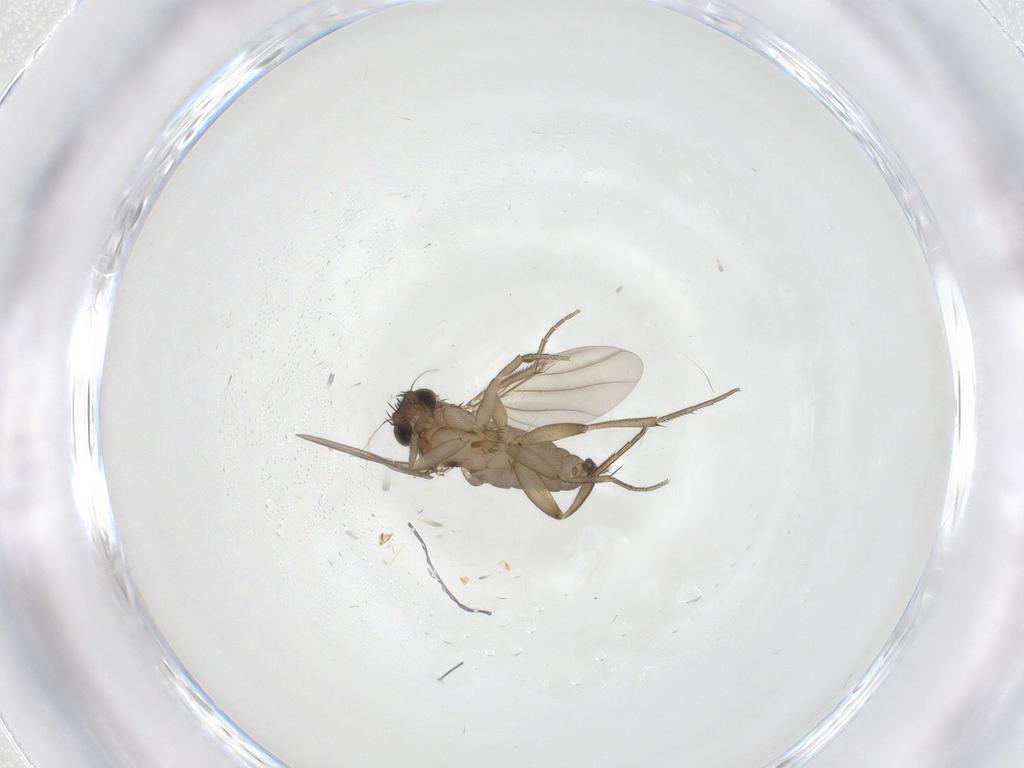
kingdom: Animalia
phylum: Arthropoda
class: Insecta
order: Diptera
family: Phoridae
